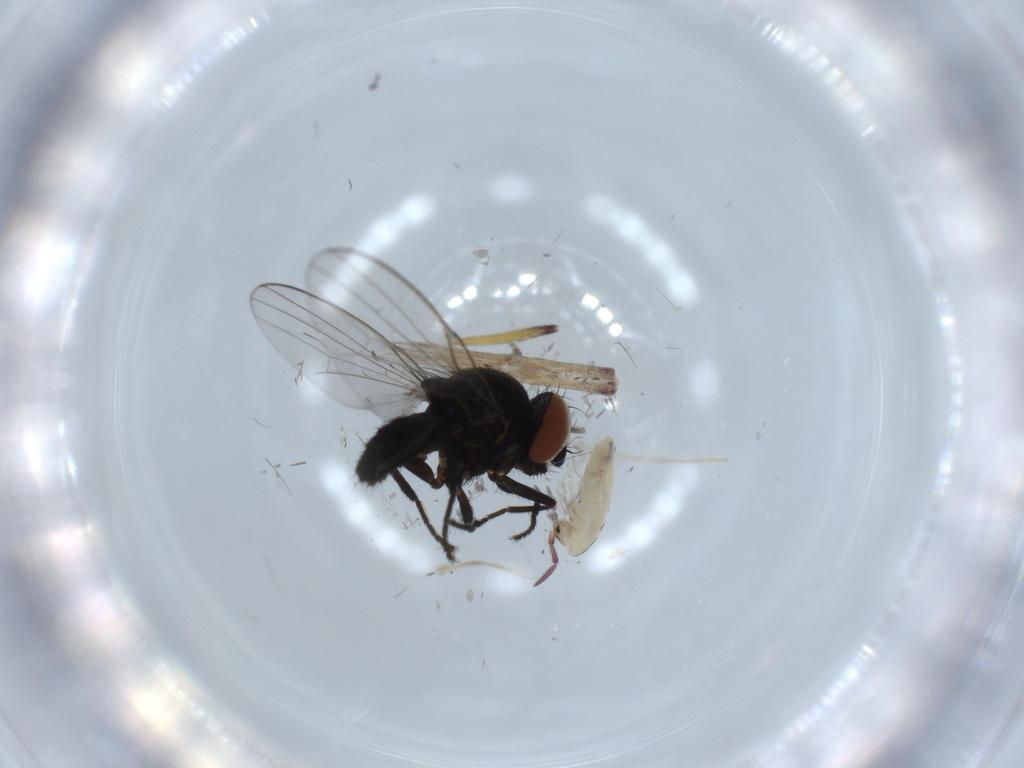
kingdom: Animalia
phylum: Arthropoda
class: Insecta
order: Diptera
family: Milichiidae
